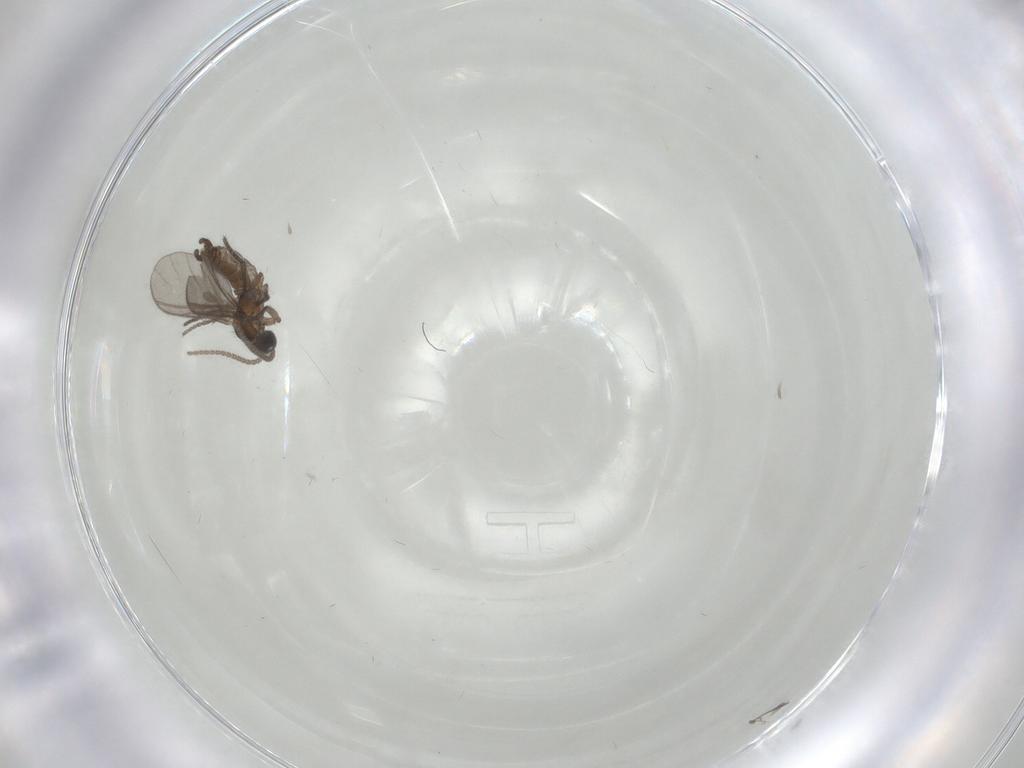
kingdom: Animalia
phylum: Arthropoda
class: Insecta
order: Diptera
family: Sciaridae
